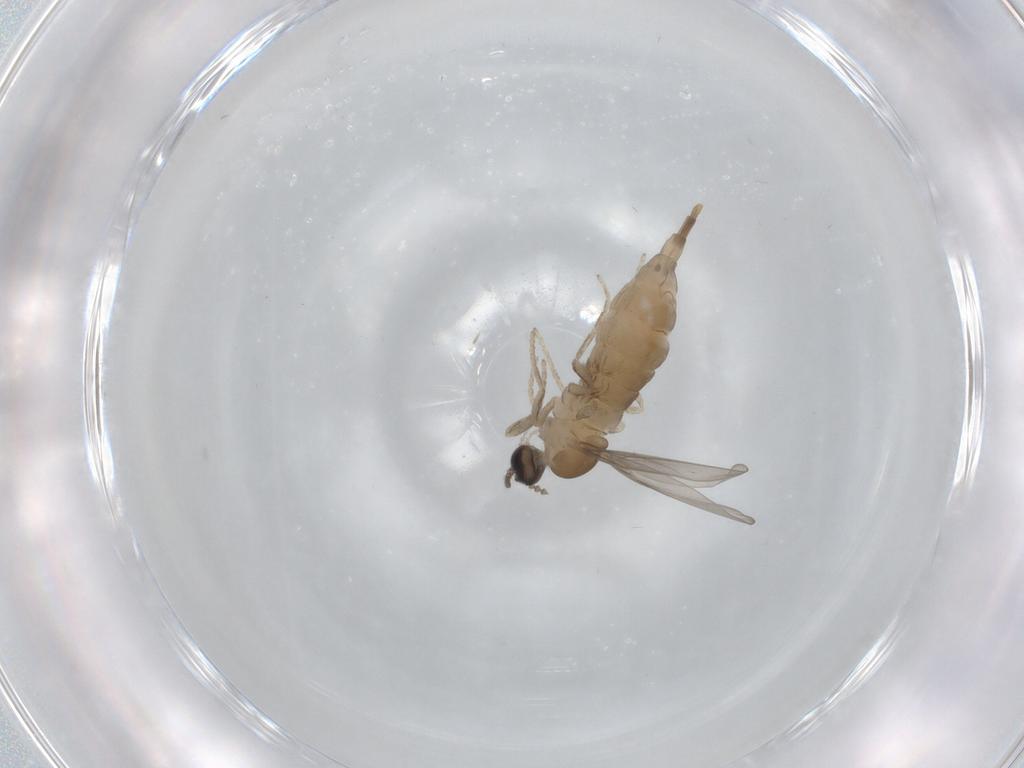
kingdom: Animalia
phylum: Arthropoda
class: Insecta
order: Diptera
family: Cecidomyiidae
